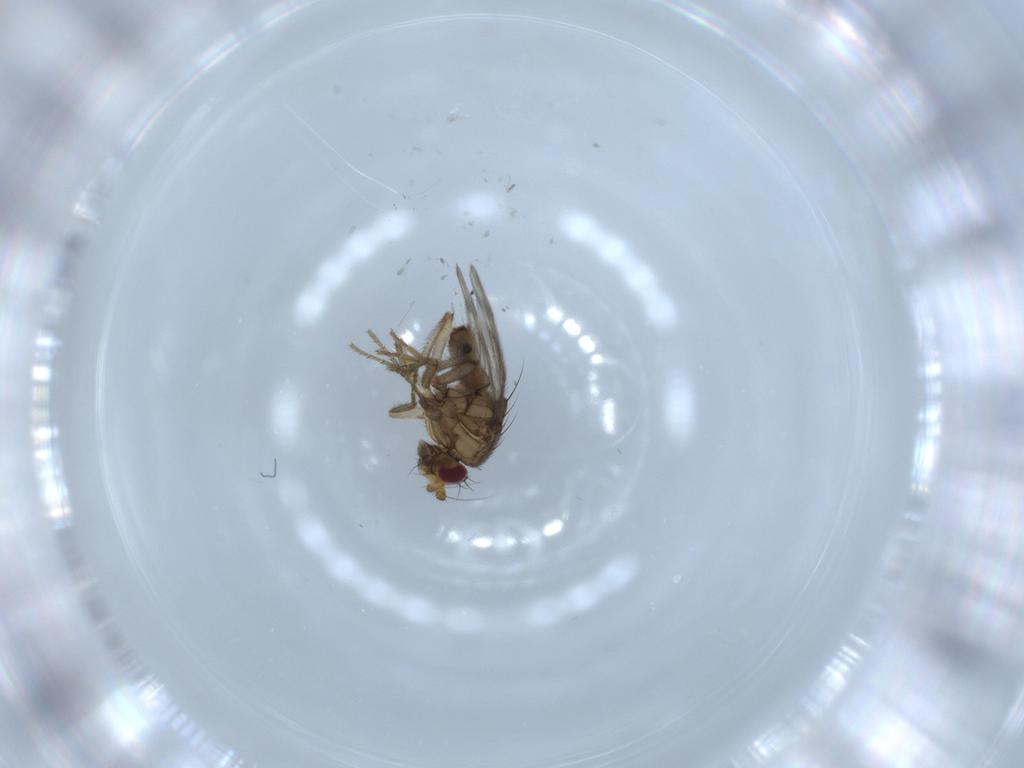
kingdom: Animalia
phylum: Arthropoda
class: Insecta
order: Diptera
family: Sphaeroceridae
